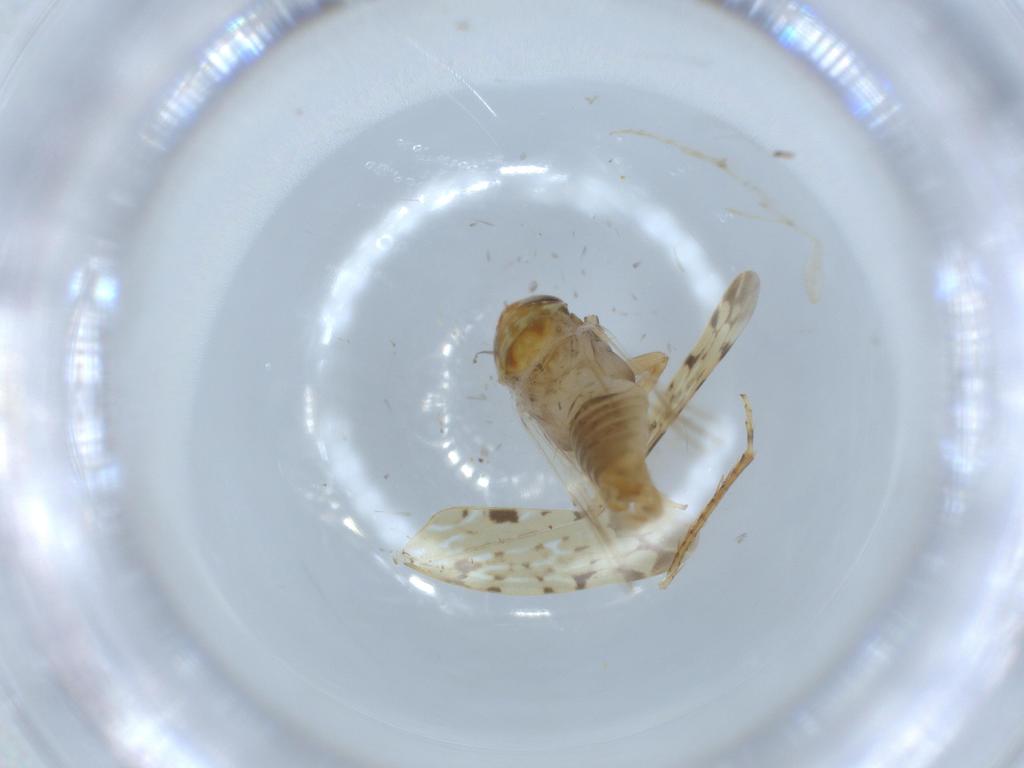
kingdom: Animalia
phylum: Arthropoda
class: Insecta
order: Hemiptera
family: Cicadellidae
